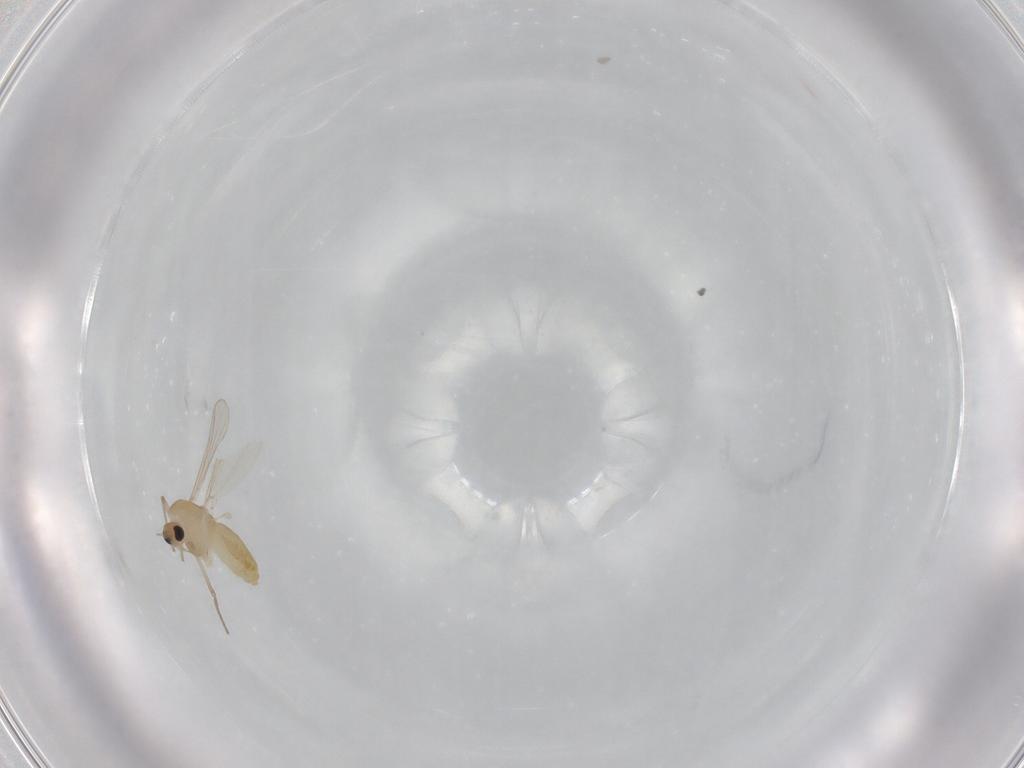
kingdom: Animalia
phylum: Arthropoda
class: Insecta
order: Diptera
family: Chironomidae
